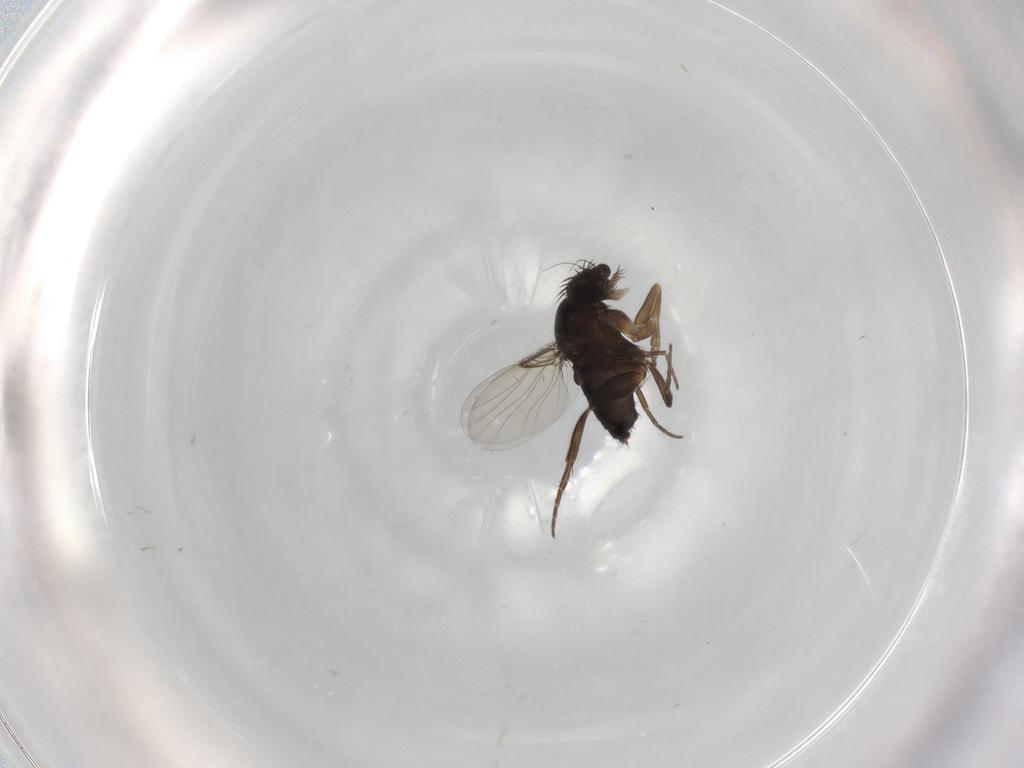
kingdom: Animalia
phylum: Arthropoda
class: Insecta
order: Diptera
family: Phoridae
